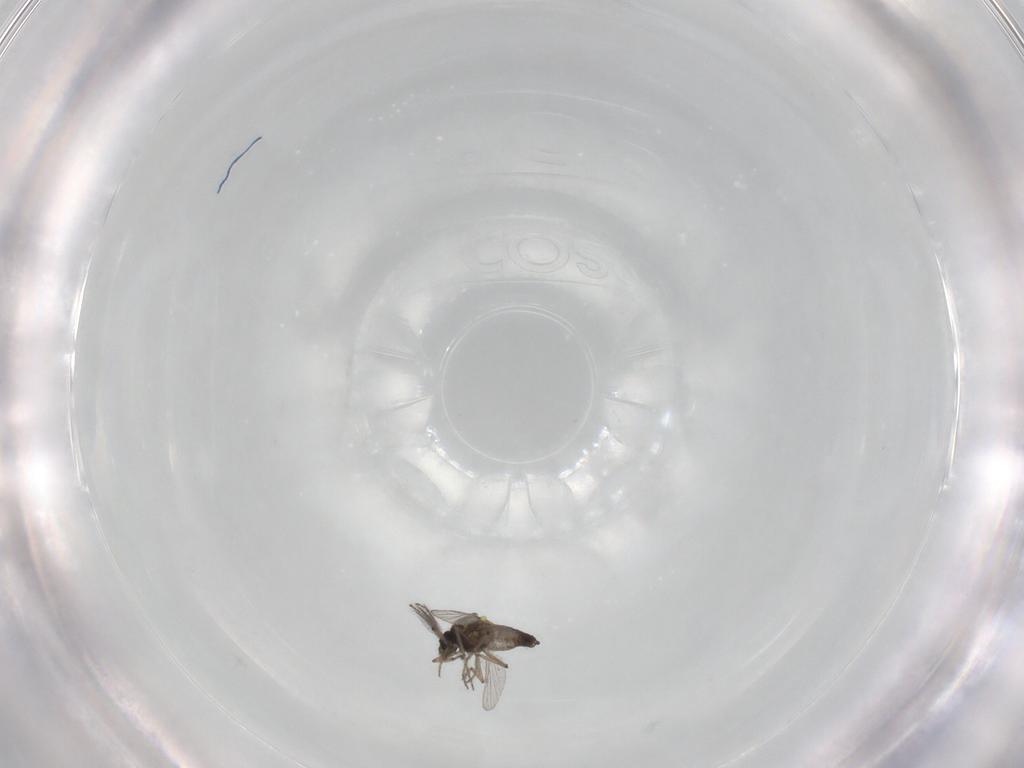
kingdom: Animalia
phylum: Arthropoda
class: Insecta
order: Diptera
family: Ceratopogonidae
